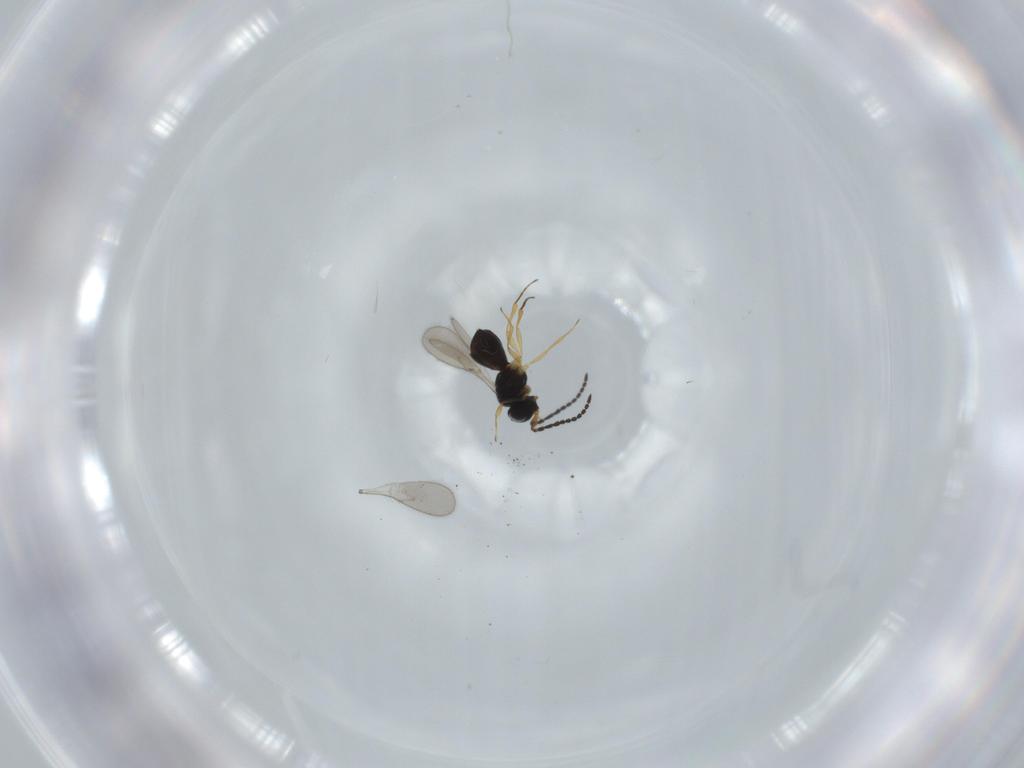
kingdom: Animalia
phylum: Arthropoda
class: Insecta
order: Hymenoptera
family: Scelionidae
